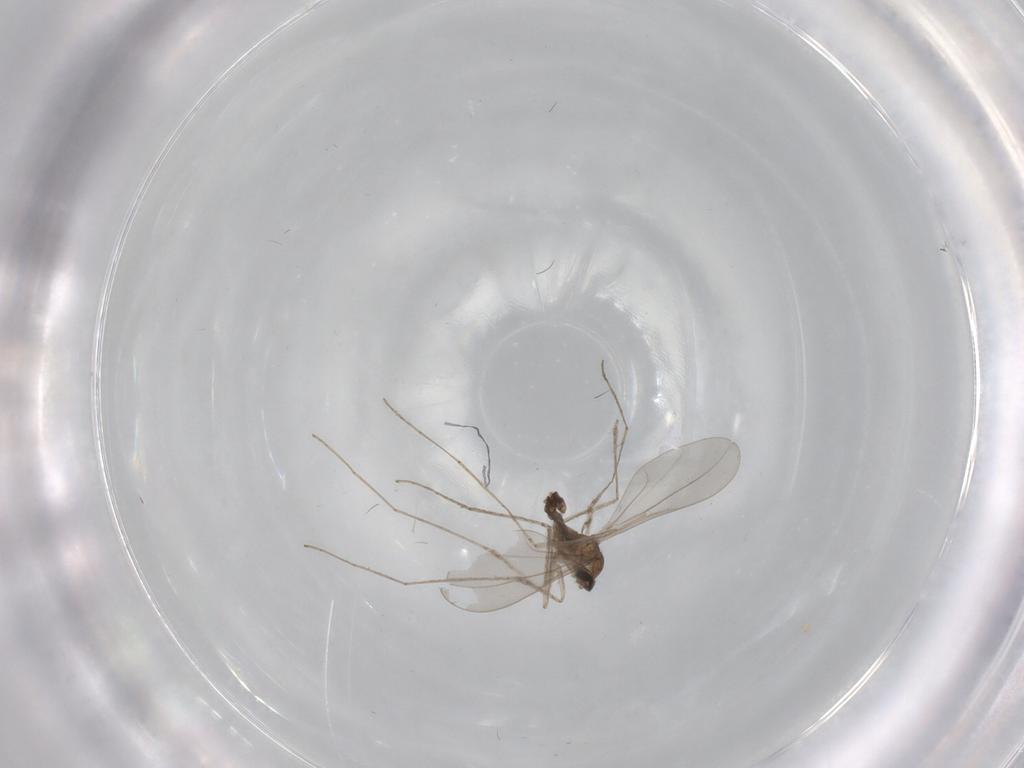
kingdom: Animalia
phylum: Arthropoda
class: Insecta
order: Diptera
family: Cecidomyiidae
